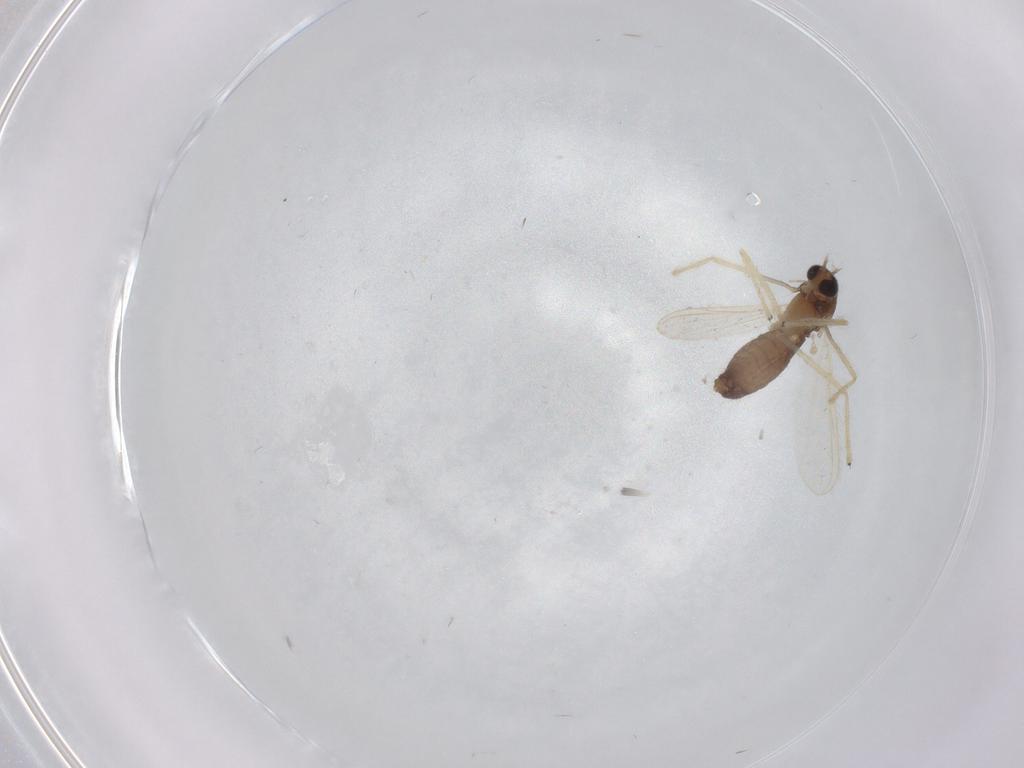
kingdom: Animalia
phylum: Arthropoda
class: Insecta
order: Diptera
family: Chironomidae
